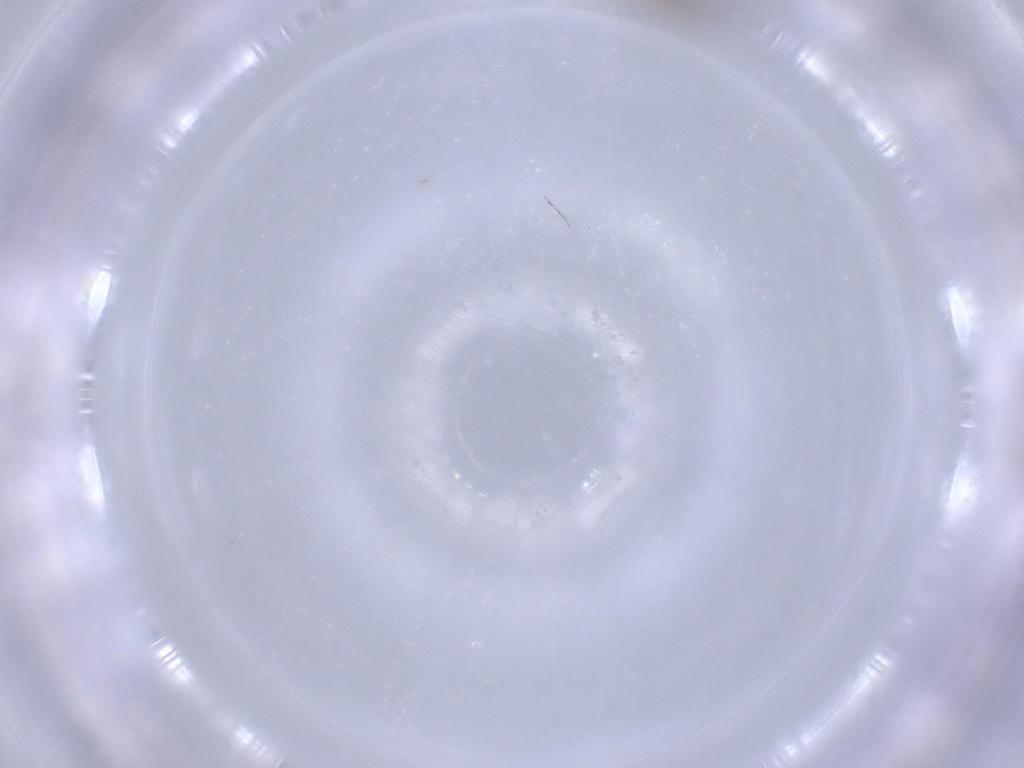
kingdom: Animalia
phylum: Arthropoda
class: Insecta
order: Diptera
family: Cecidomyiidae
